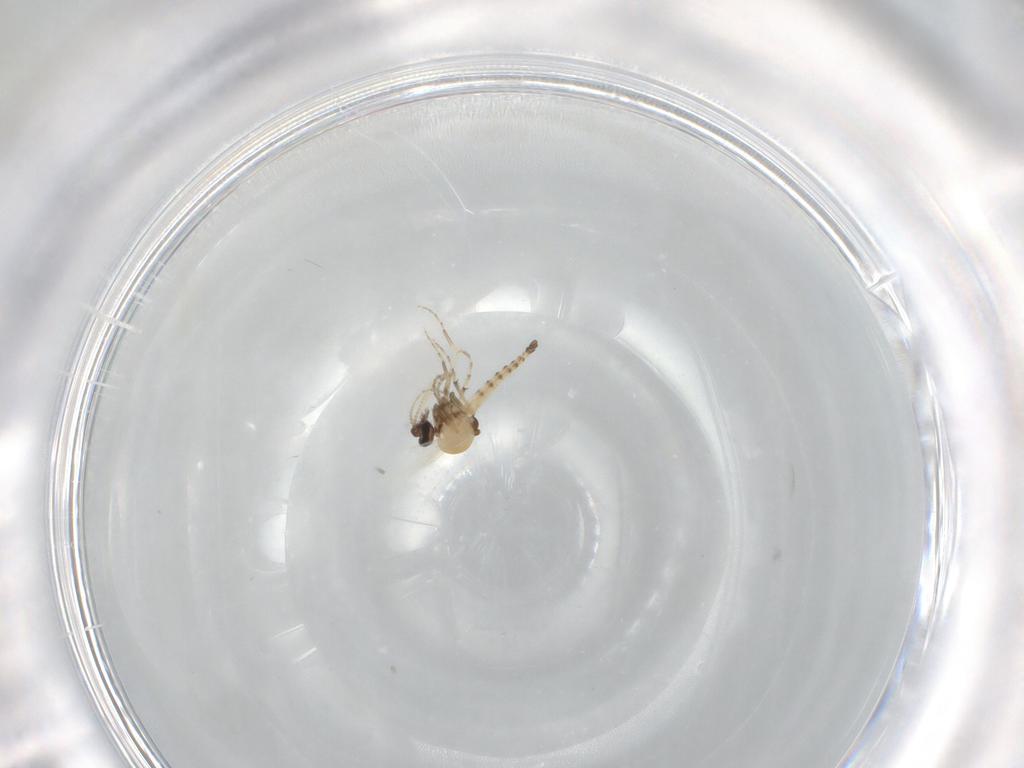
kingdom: Animalia
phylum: Arthropoda
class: Insecta
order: Diptera
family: Ceratopogonidae
